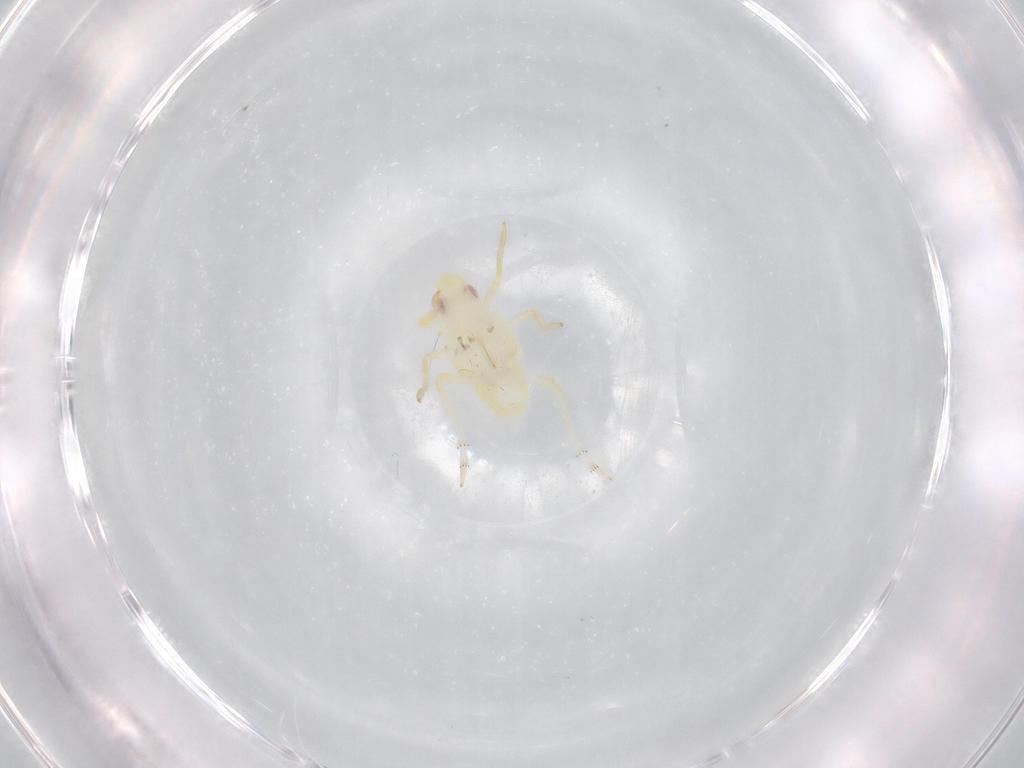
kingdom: Animalia
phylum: Arthropoda
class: Insecta
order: Hemiptera
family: Tropiduchidae
